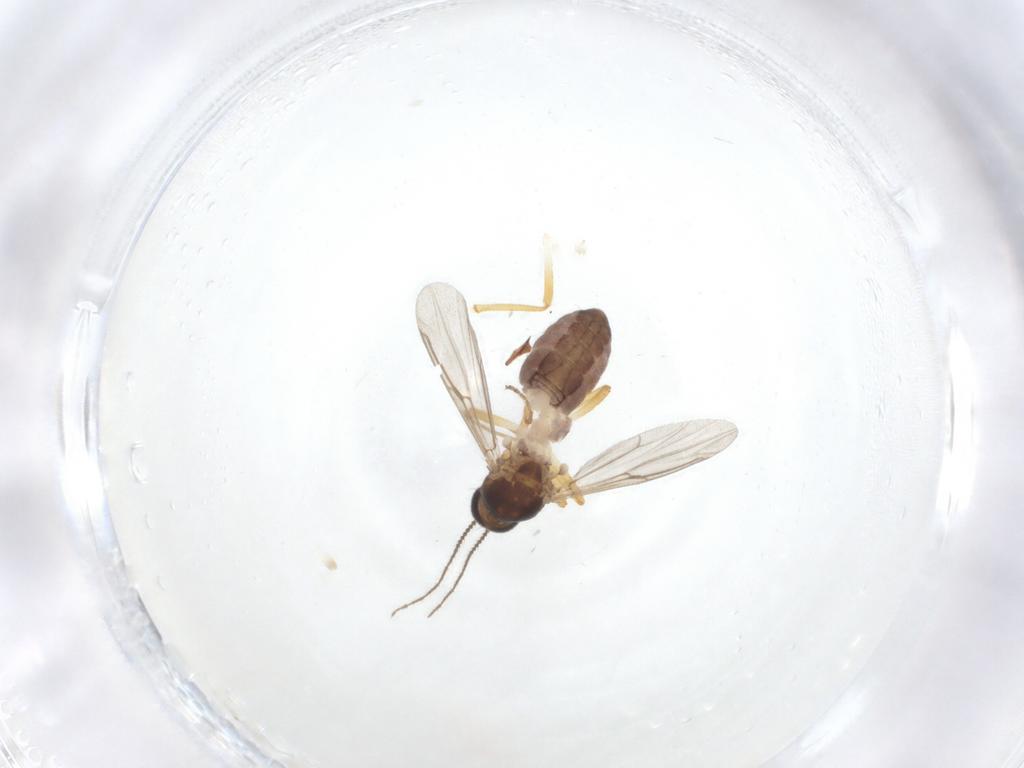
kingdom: Animalia
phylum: Arthropoda
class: Insecta
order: Diptera
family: Ceratopogonidae
